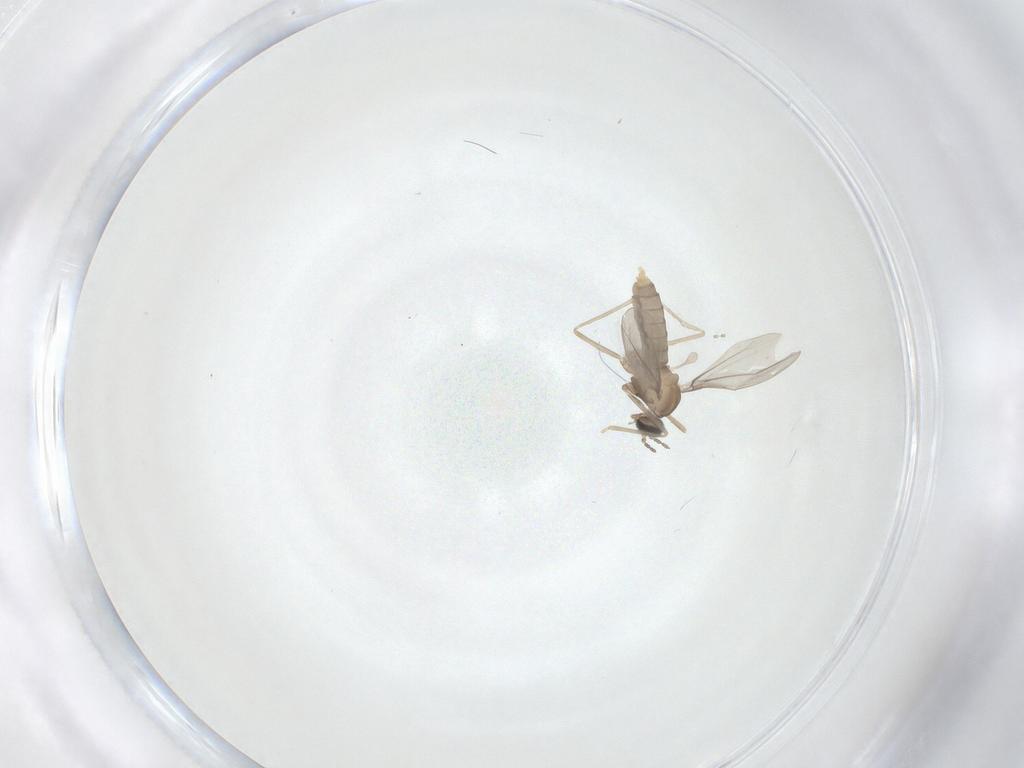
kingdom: Animalia
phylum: Arthropoda
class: Insecta
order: Diptera
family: Cecidomyiidae
